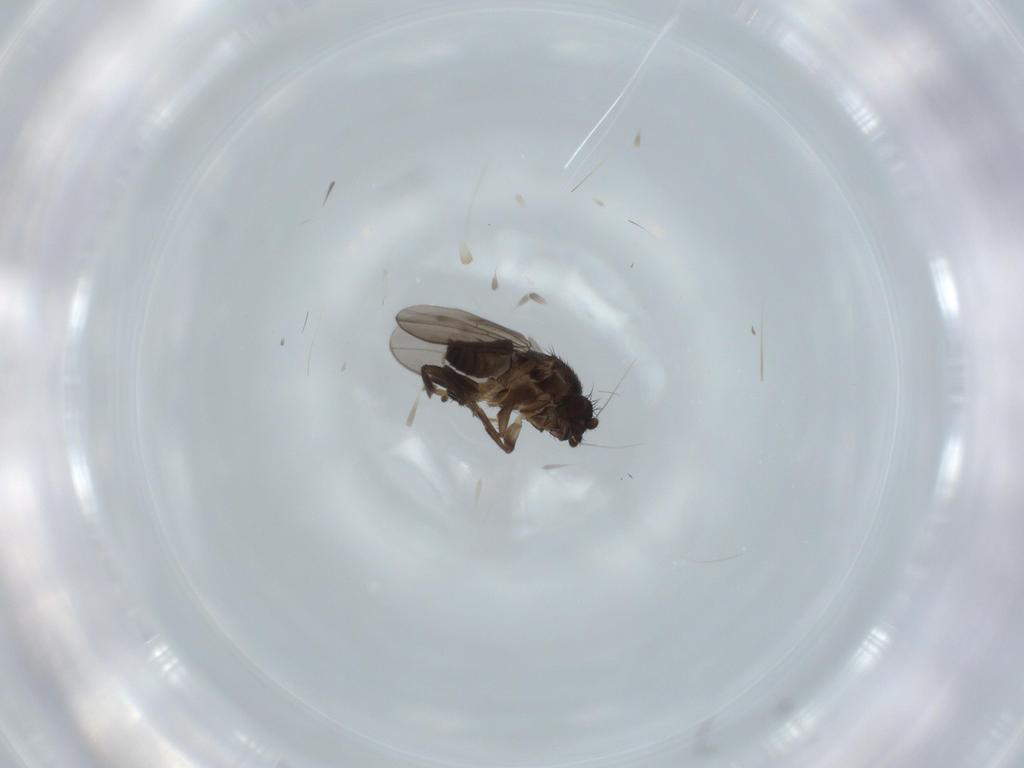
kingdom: Animalia
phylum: Arthropoda
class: Insecta
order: Diptera
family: Sphaeroceridae
